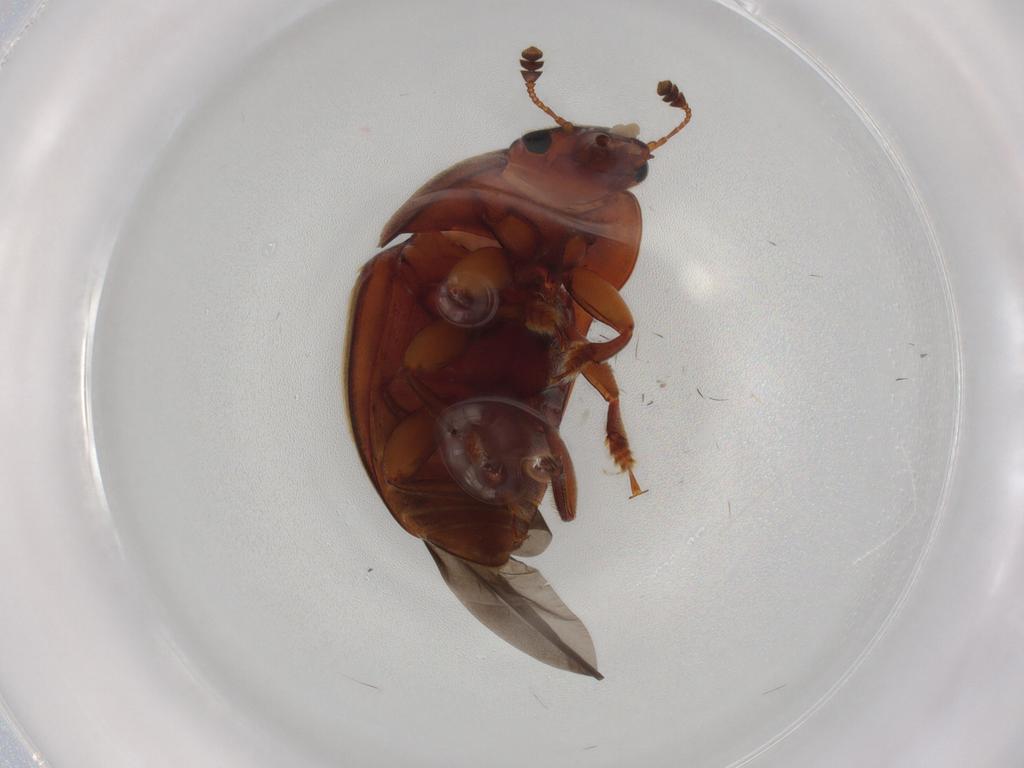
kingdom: Animalia
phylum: Arthropoda
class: Insecta
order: Coleoptera
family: Nitidulidae
